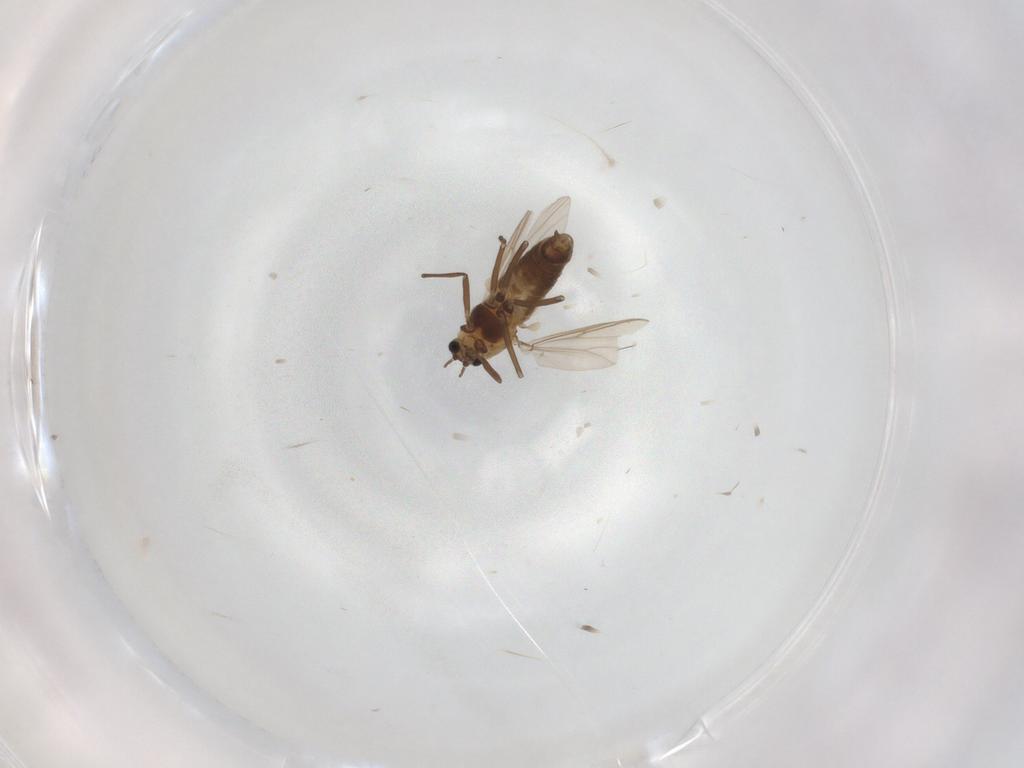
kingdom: Animalia
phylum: Arthropoda
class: Insecta
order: Diptera
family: Chironomidae
